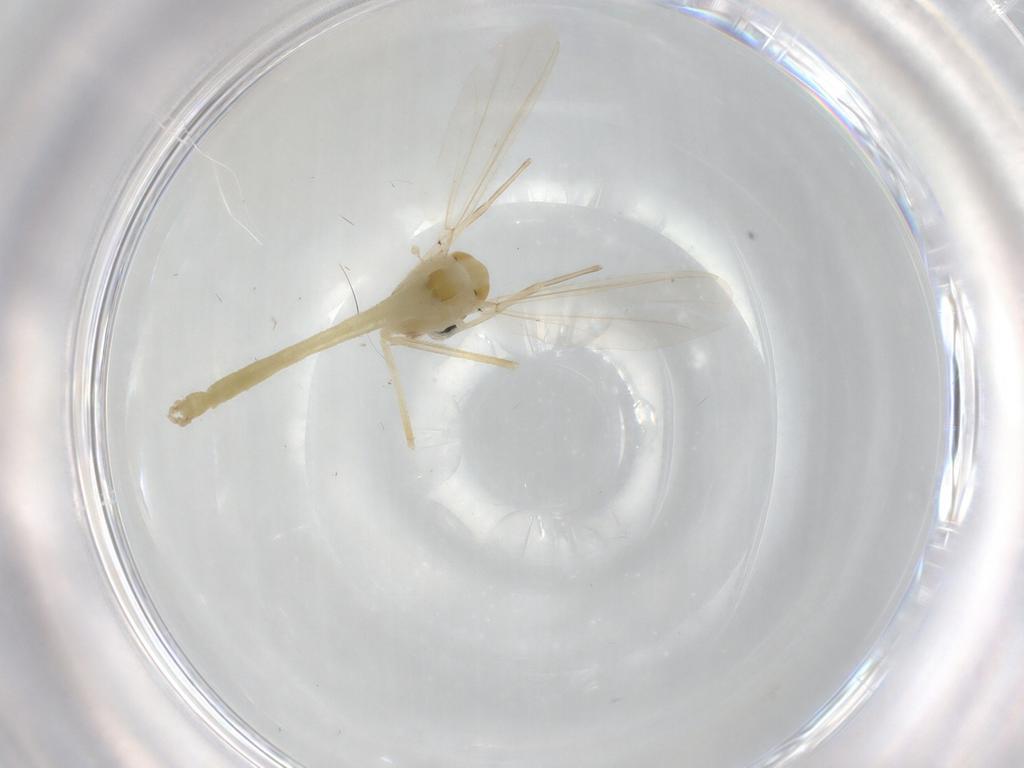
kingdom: Animalia
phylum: Arthropoda
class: Insecta
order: Diptera
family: Chironomidae
